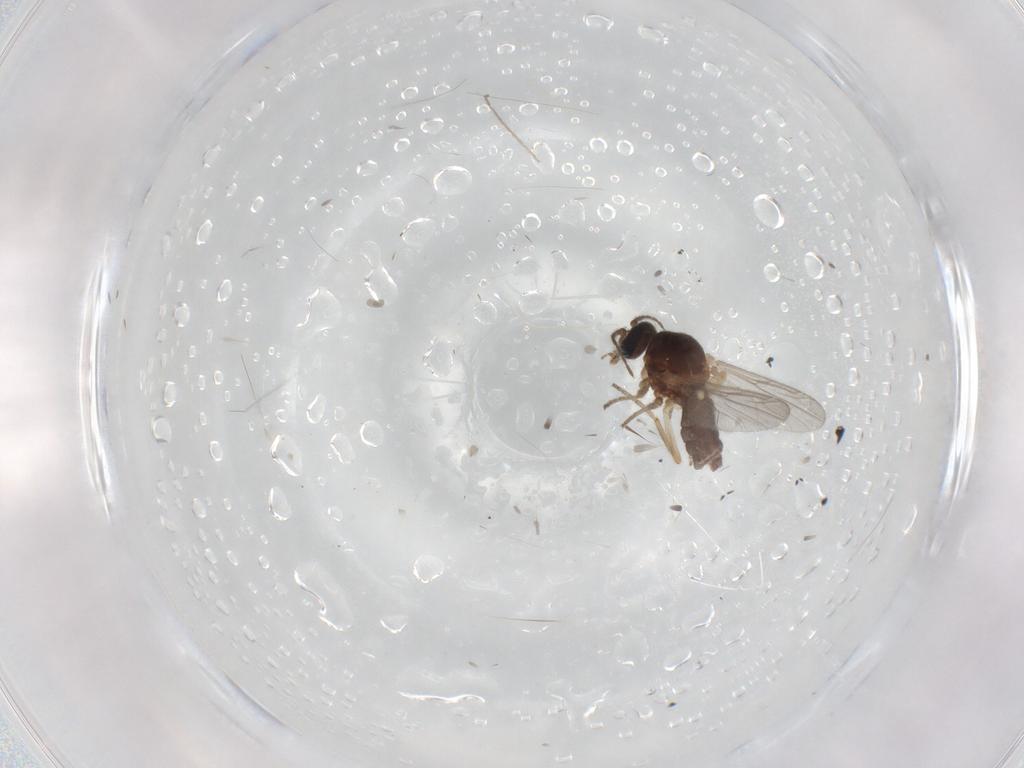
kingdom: Animalia
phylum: Arthropoda
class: Insecta
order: Diptera
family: Ceratopogonidae
